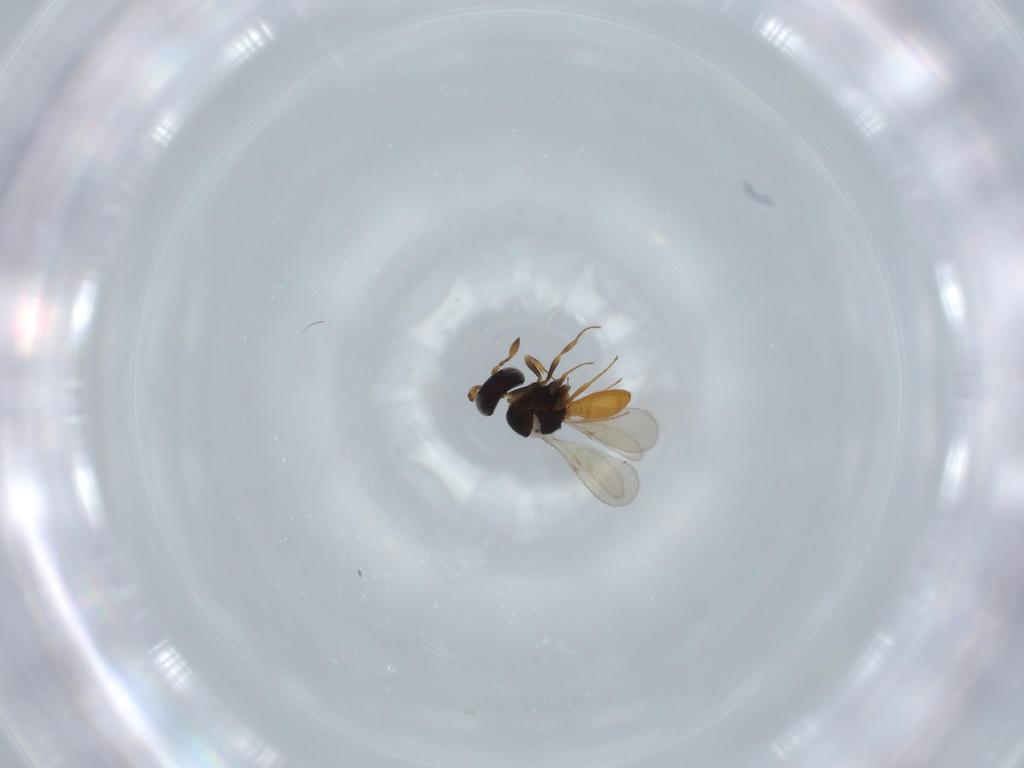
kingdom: Animalia
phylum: Arthropoda
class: Insecta
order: Hymenoptera
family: Scelionidae
